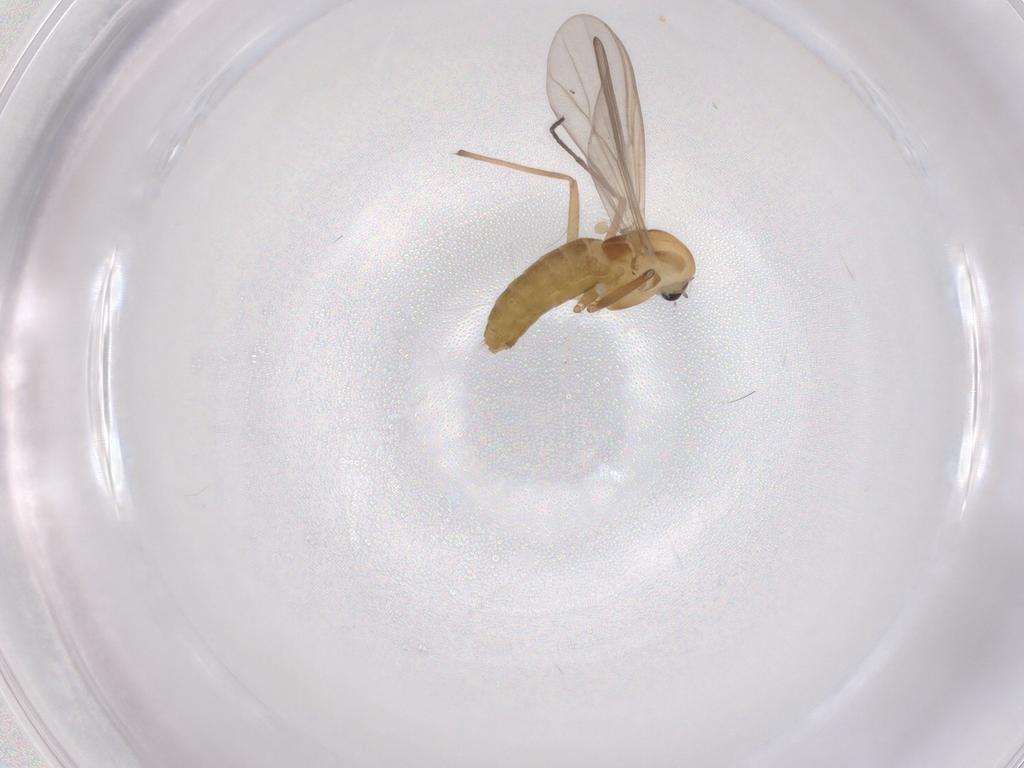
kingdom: Animalia
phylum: Arthropoda
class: Insecta
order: Diptera
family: Chironomidae
